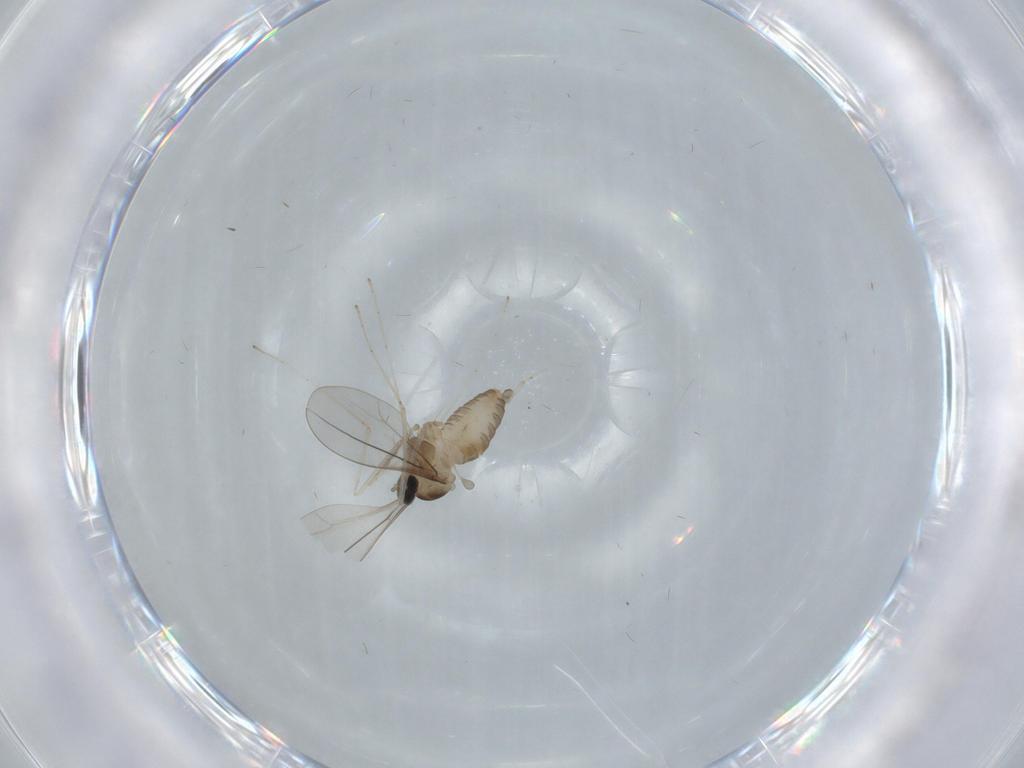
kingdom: Animalia
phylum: Arthropoda
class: Insecta
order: Diptera
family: Cecidomyiidae
